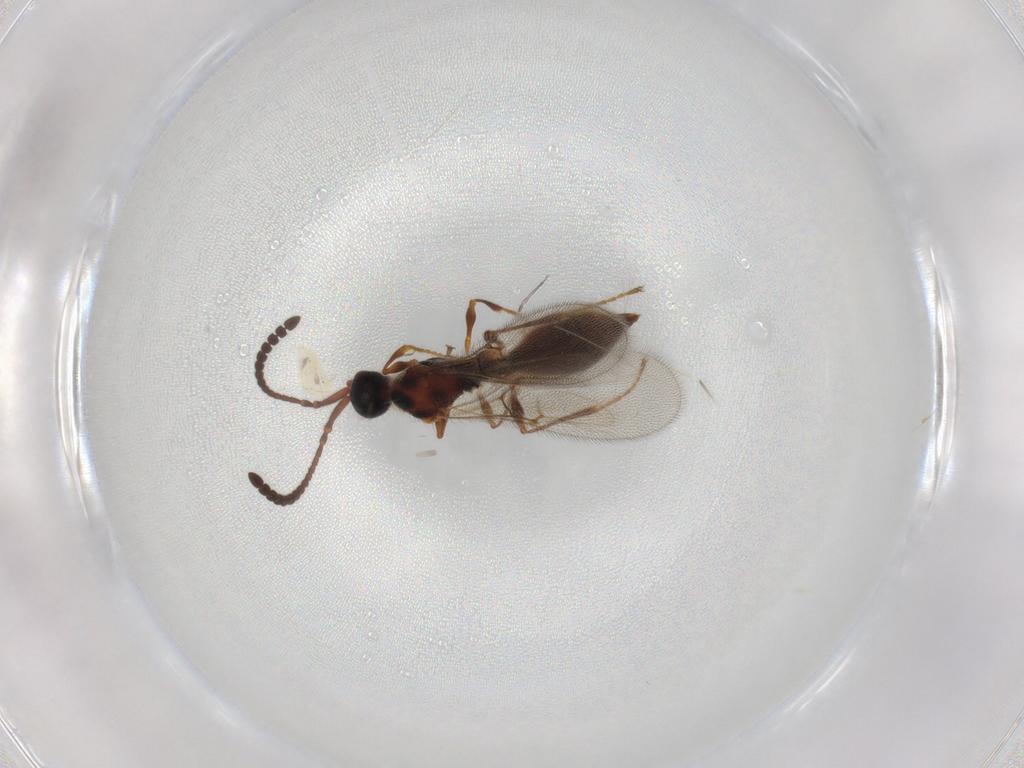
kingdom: Animalia
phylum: Arthropoda
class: Insecta
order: Hymenoptera
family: Diapriidae
